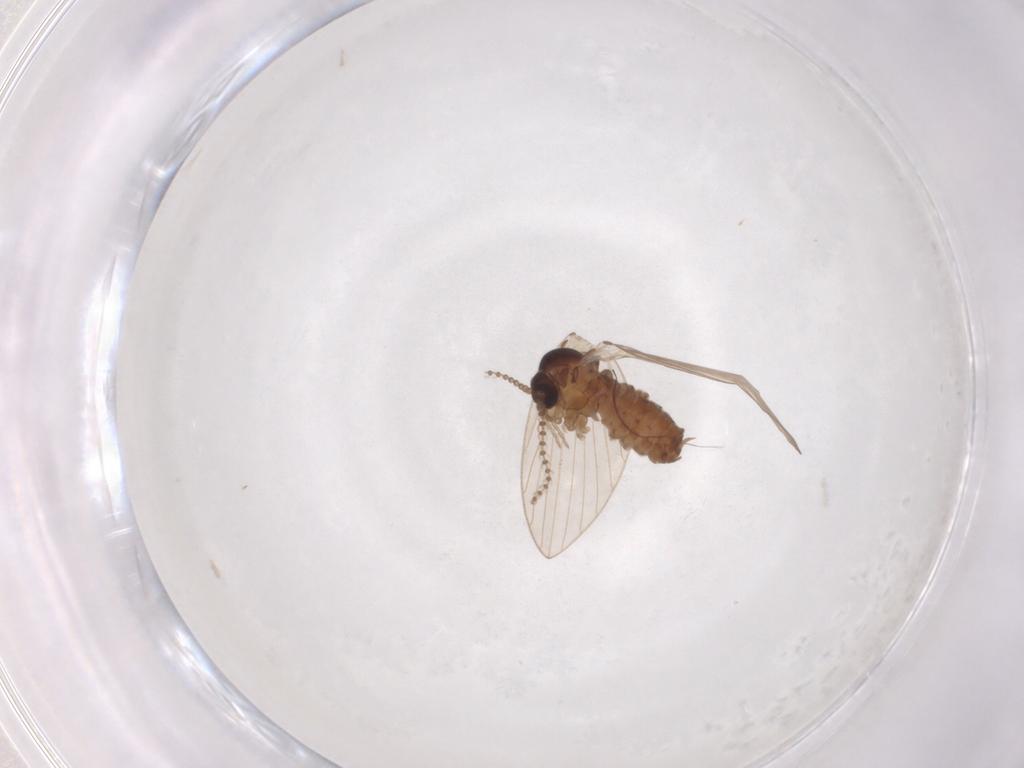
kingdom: Animalia
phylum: Arthropoda
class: Insecta
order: Diptera
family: Psychodidae
